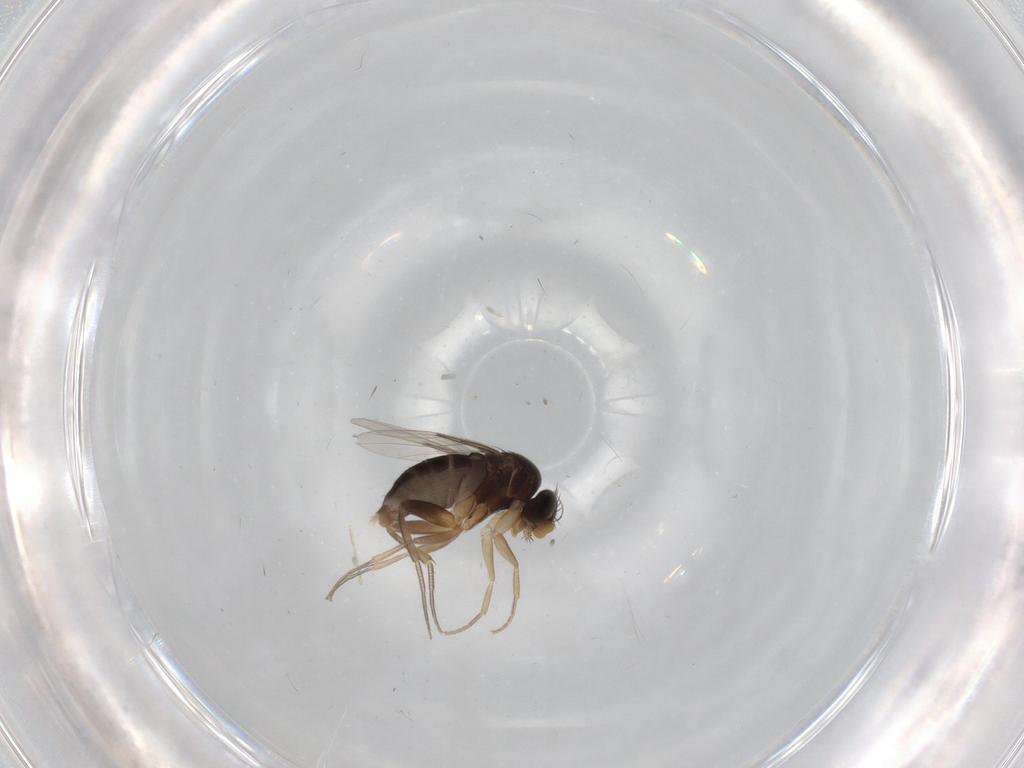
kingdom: Animalia
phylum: Arthropoda
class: Insecta
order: Diptera
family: Phoridae
